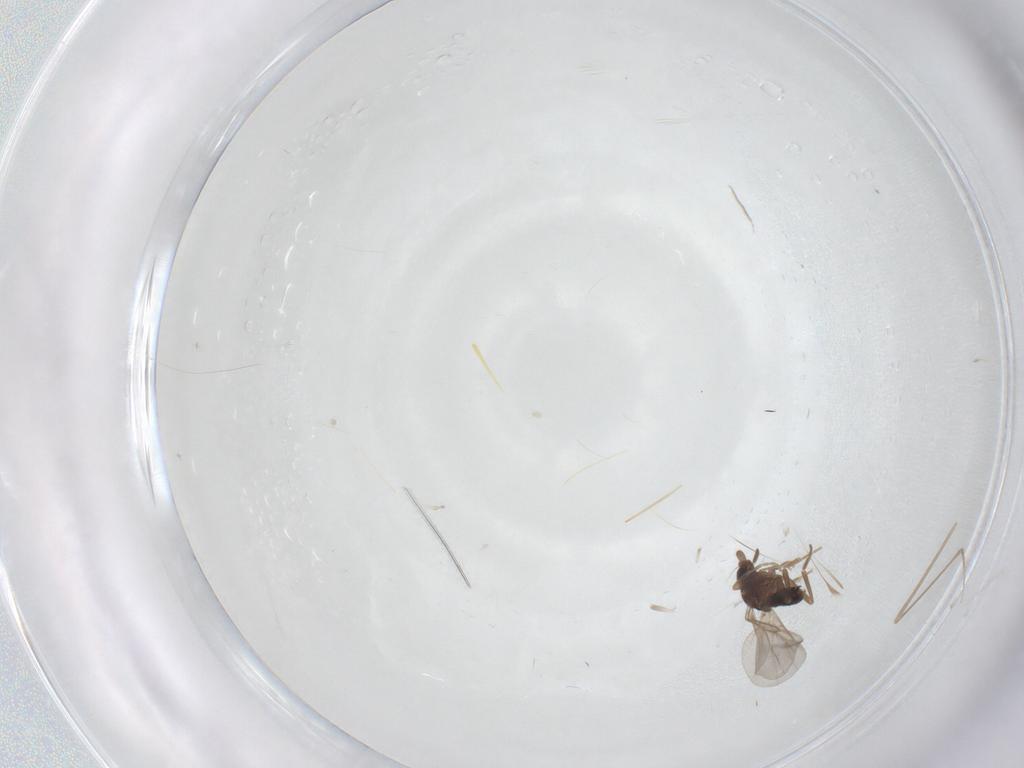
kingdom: Animalia
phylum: Arthropoda
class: Insecta
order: Diptera
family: Phoridae
